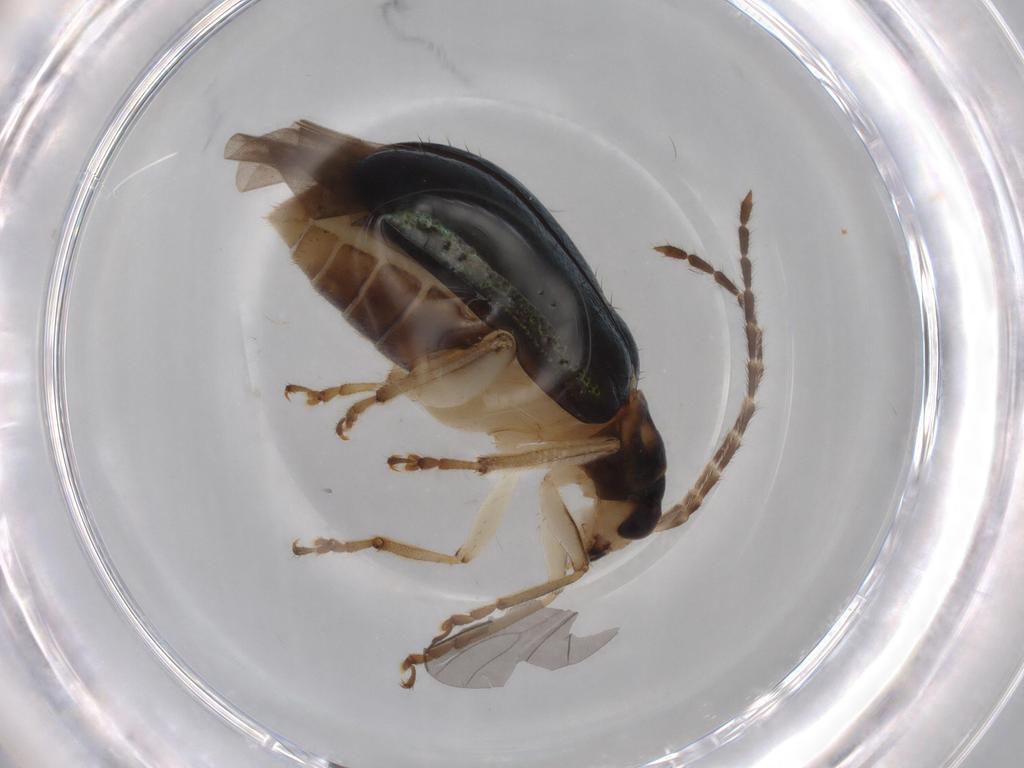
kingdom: Animalia
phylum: Arthropoda
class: Insecta
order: Coleoptera
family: Chrysomelidae
